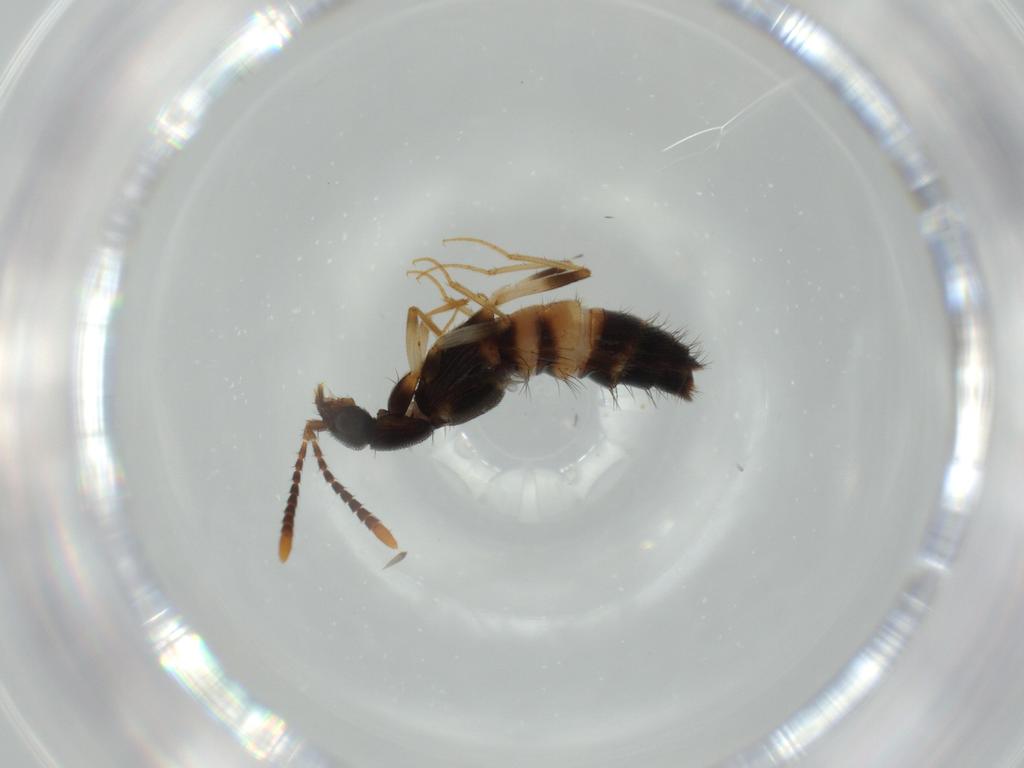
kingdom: Animalia
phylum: Arthropoda
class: Insecta
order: Coleoptera
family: Staphylinidae
